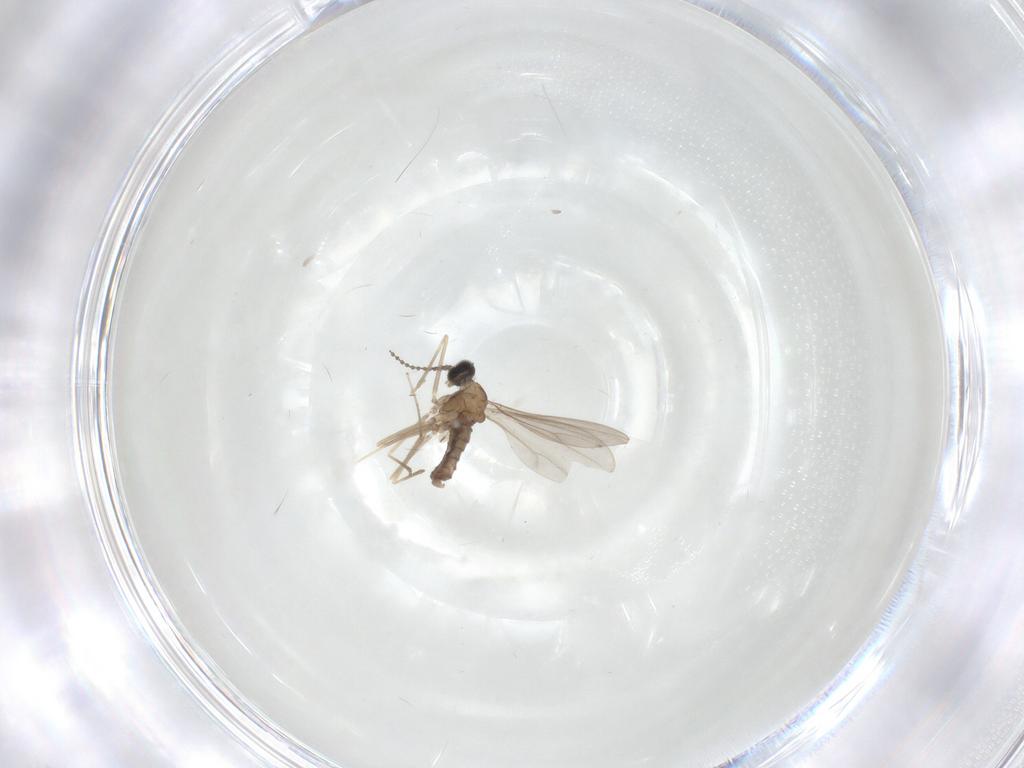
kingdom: Animalia
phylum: Arthropoda
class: Insecta
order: Diptera
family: Cecidomyiidae
